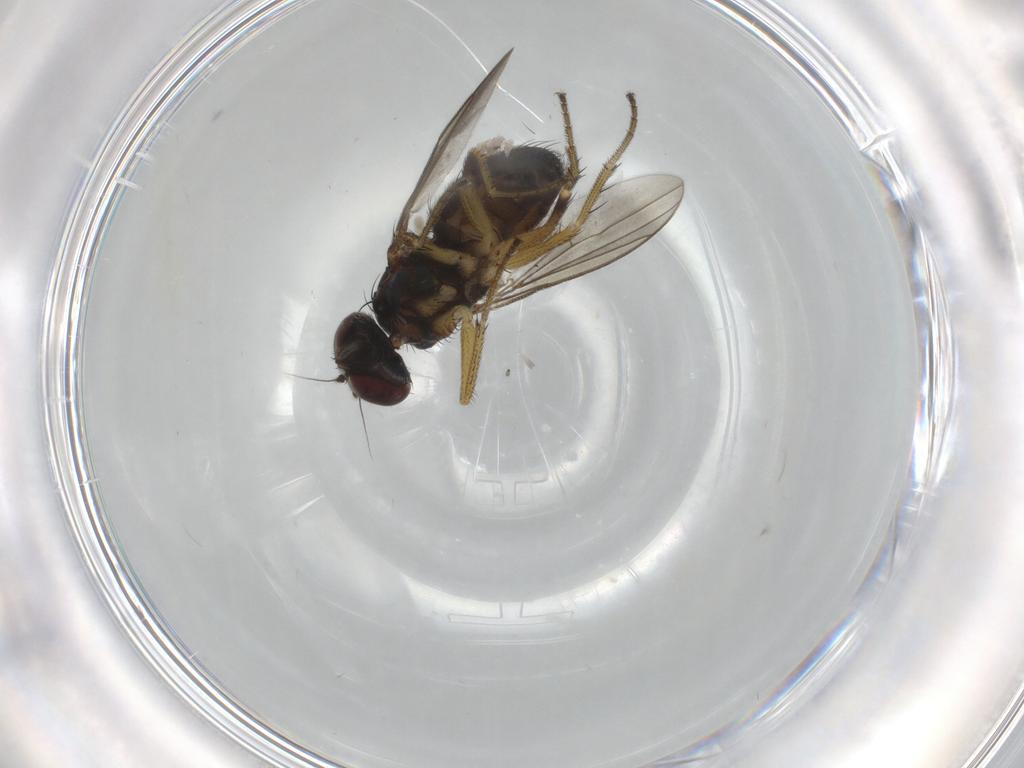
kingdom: Animalia
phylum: Arthropoda
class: Insecta
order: Diptera
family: Dolichopodidae
